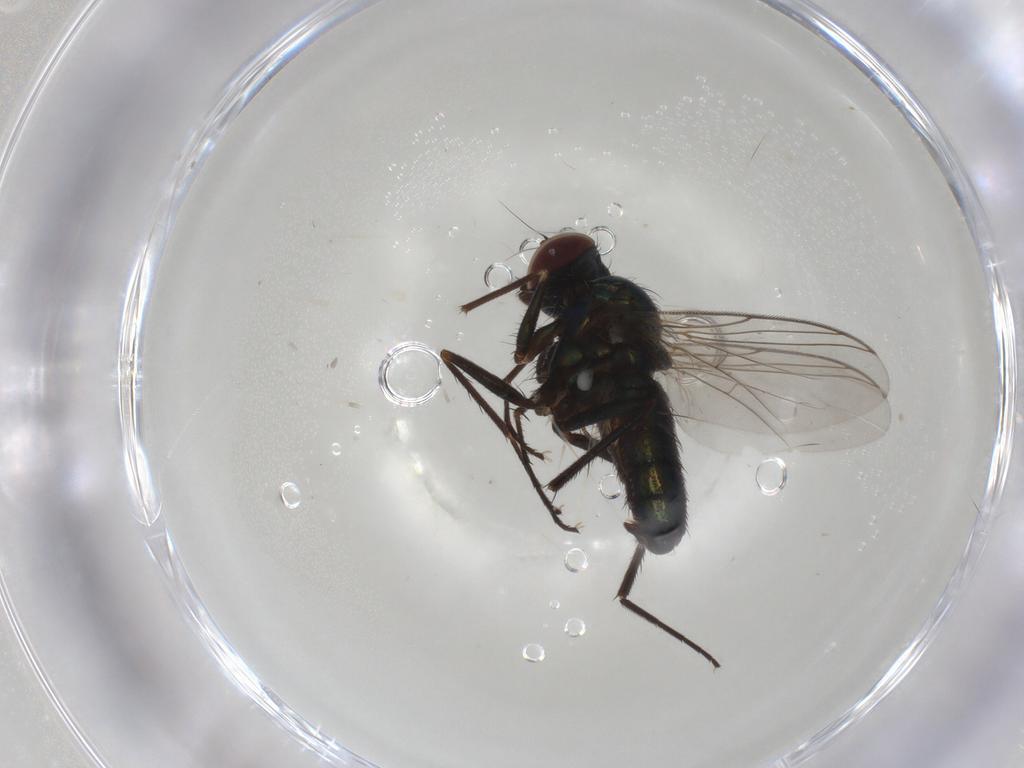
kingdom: Animalia
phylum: Arthropoda
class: Insecta
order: Diptera
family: Dolichopodidae
